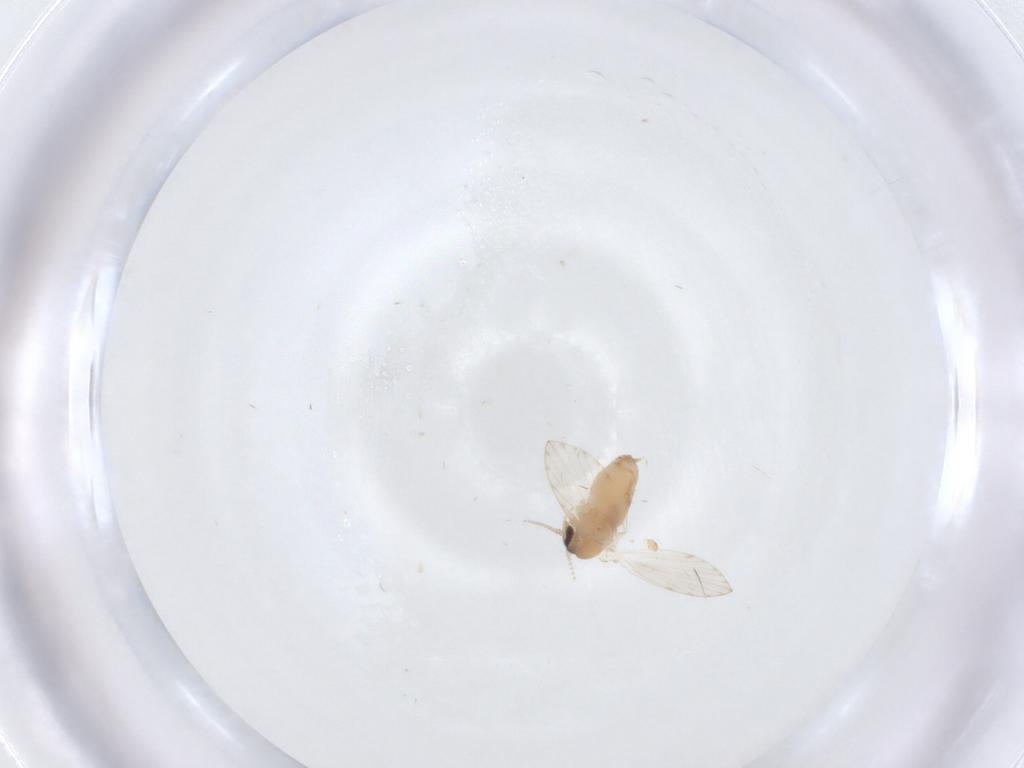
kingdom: Animalia
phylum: Arthropoda
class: Insecta
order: Diptera
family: Psychodidae
